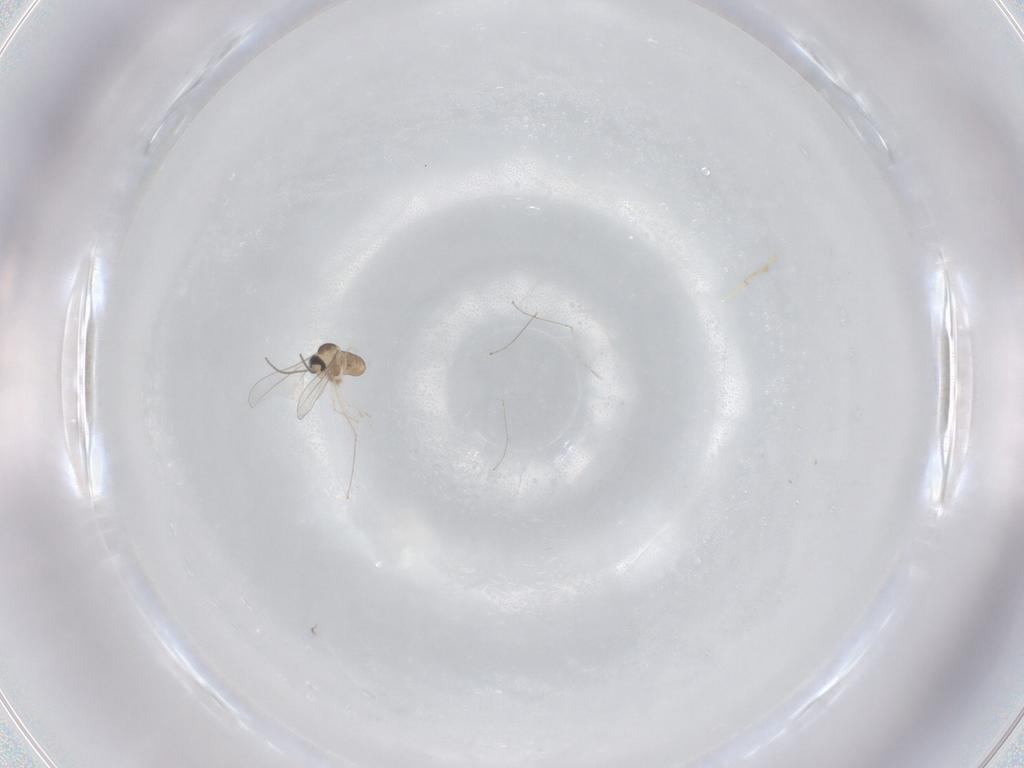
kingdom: Animalia
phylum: Arthropoda
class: Insecta
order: Diptera
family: Cecidomyiidae
